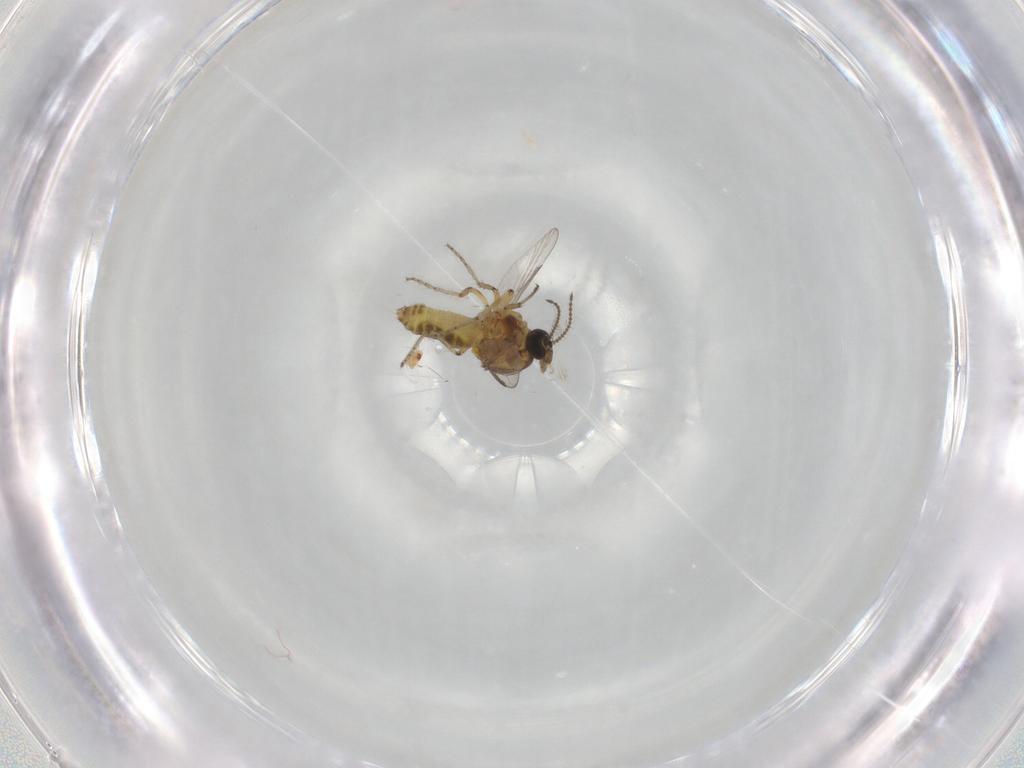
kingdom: Animalia
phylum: Arthropoda
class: Insecta
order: Diptera
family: Ceratopogonidae
